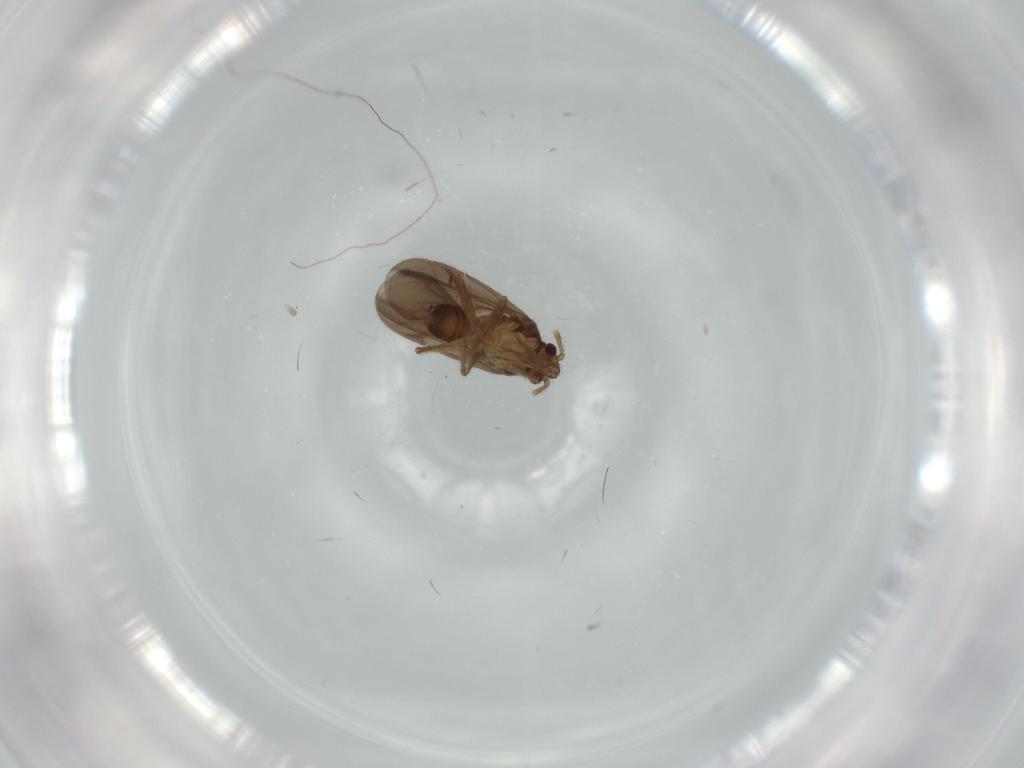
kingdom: Animalia
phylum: Arthropoda
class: Insecta
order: Hemiptera
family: Ceratocombidae
